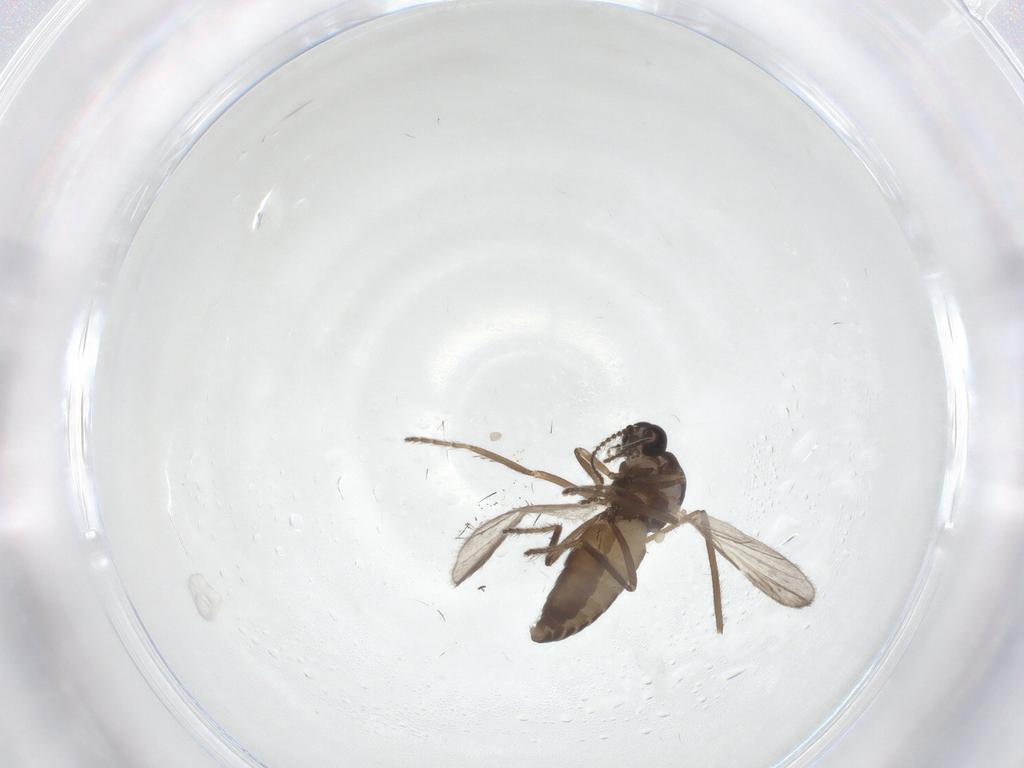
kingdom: Animalia
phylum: Arthropoda
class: Insecta
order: Diptera
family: Ceratopogonidae
